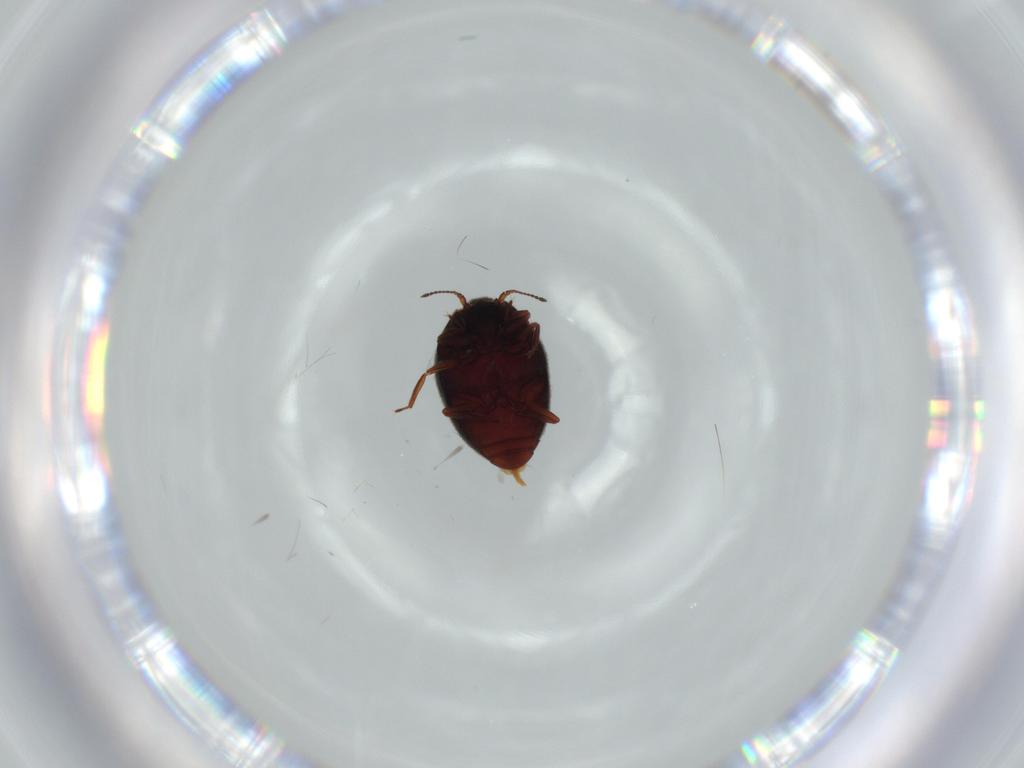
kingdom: Animalia
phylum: Arthropoda
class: Insecta
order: Coleoptera
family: Limnichidae
